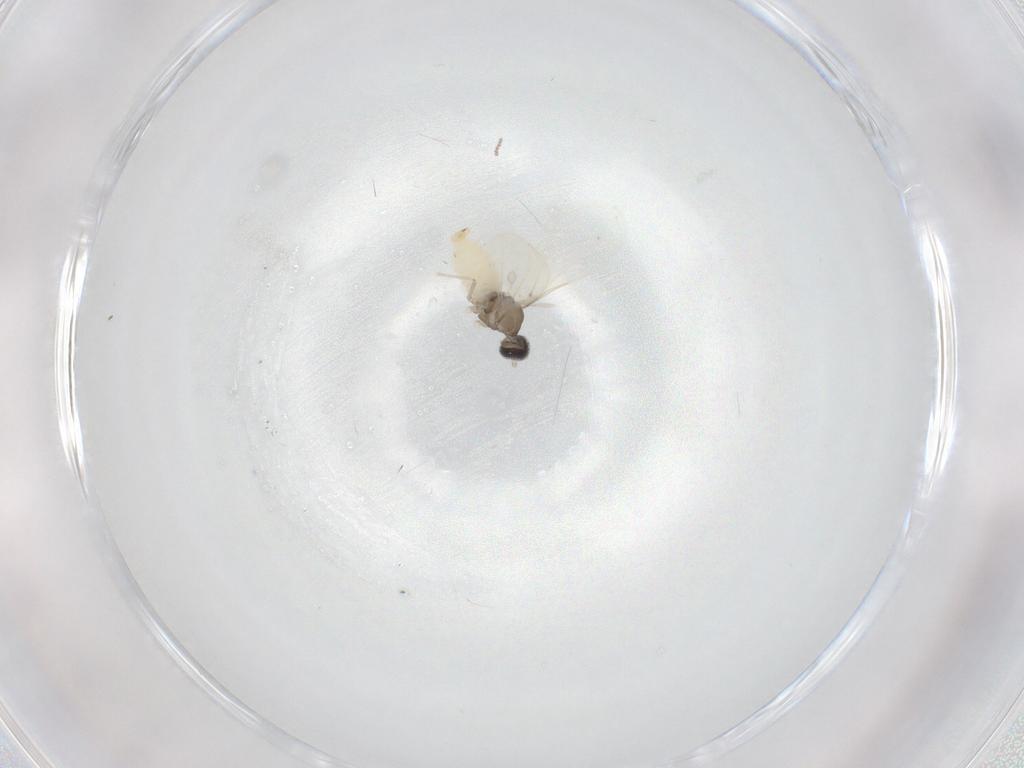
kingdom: Animalia
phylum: Arthropoda
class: Insecta
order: Diptera
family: Cecidomyiidae
